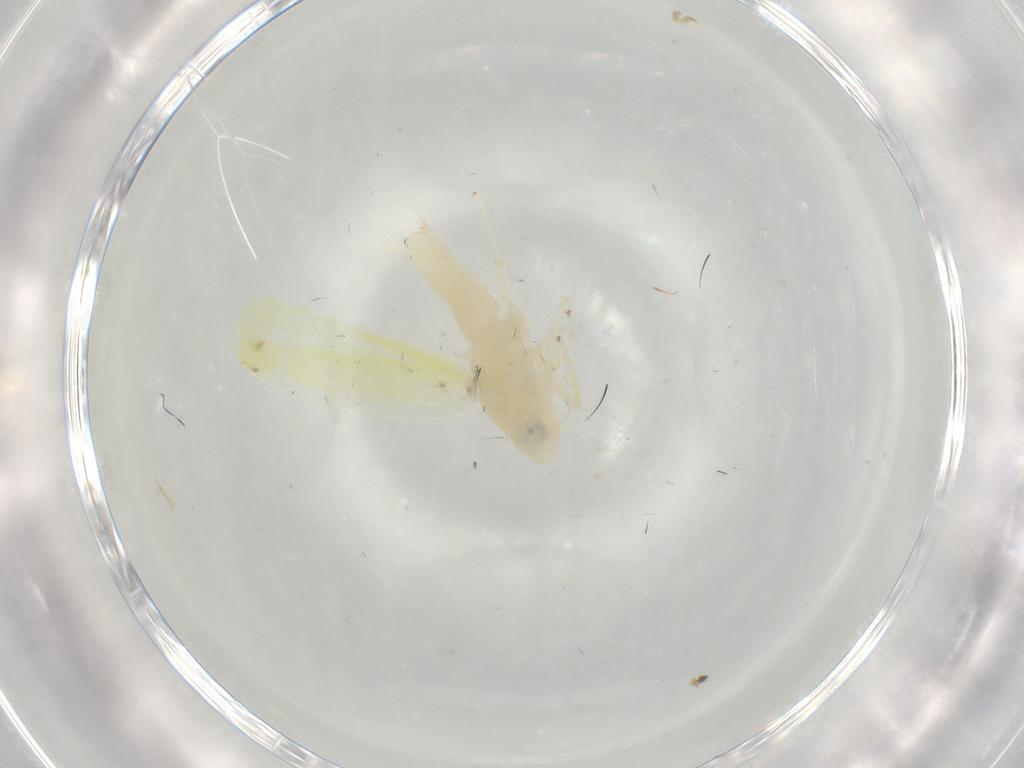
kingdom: Animalia
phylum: Arthropoda
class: Insecta
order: Hemiptera
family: Cicadellidae
